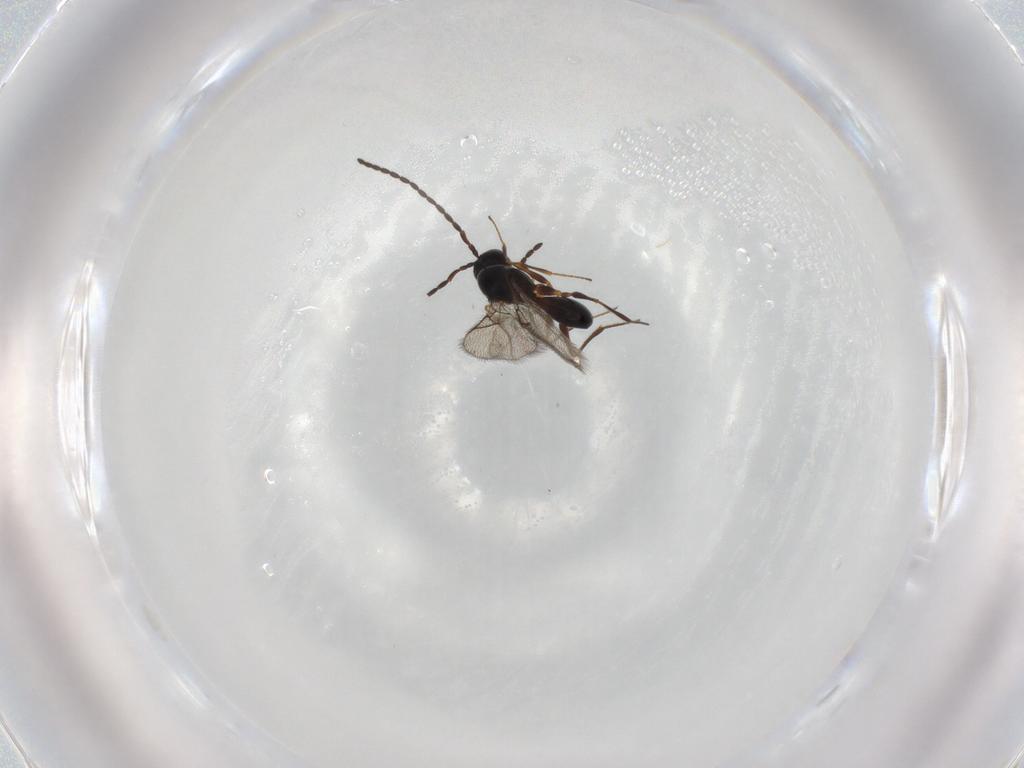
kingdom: Animalia
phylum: Arthropoda
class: Insecta
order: Hymenoptera
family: Figitidae
